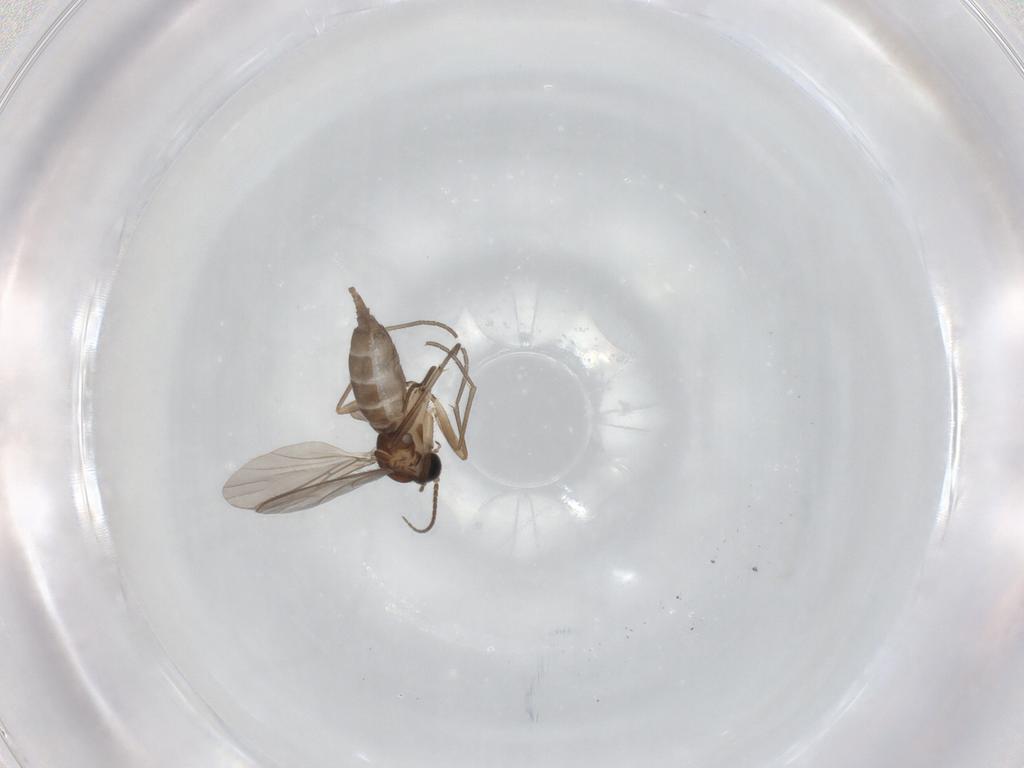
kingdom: Animalia
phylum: Arthropoda
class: Insecta
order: Diptera
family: Sciaridae
